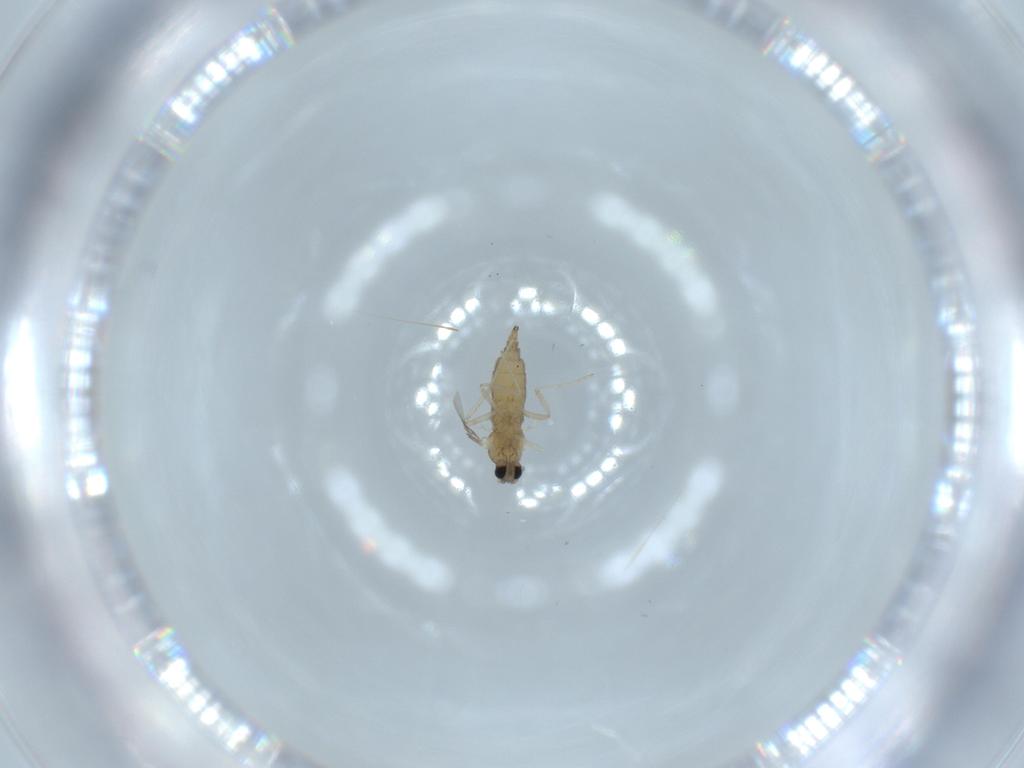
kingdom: Animalia
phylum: Arthropoda
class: Insecta
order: Diptera
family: Cecidomyiidae
